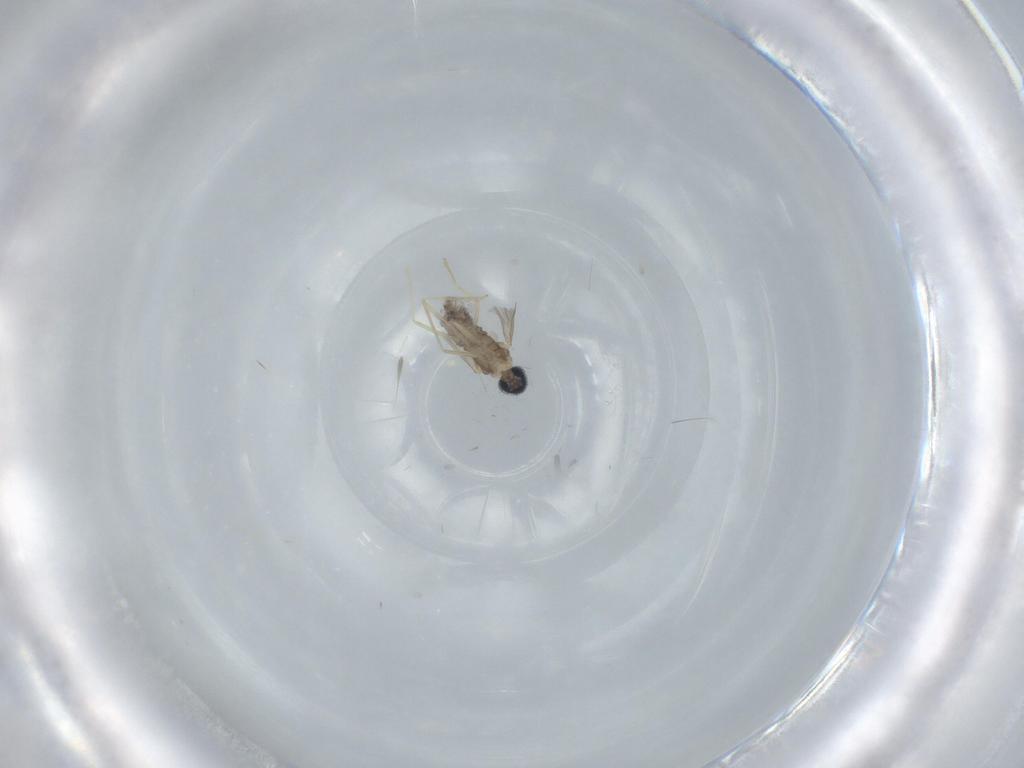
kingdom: Animalia
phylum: Arthropoda
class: Insecta
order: Diptera
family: Cecidomyiidae
